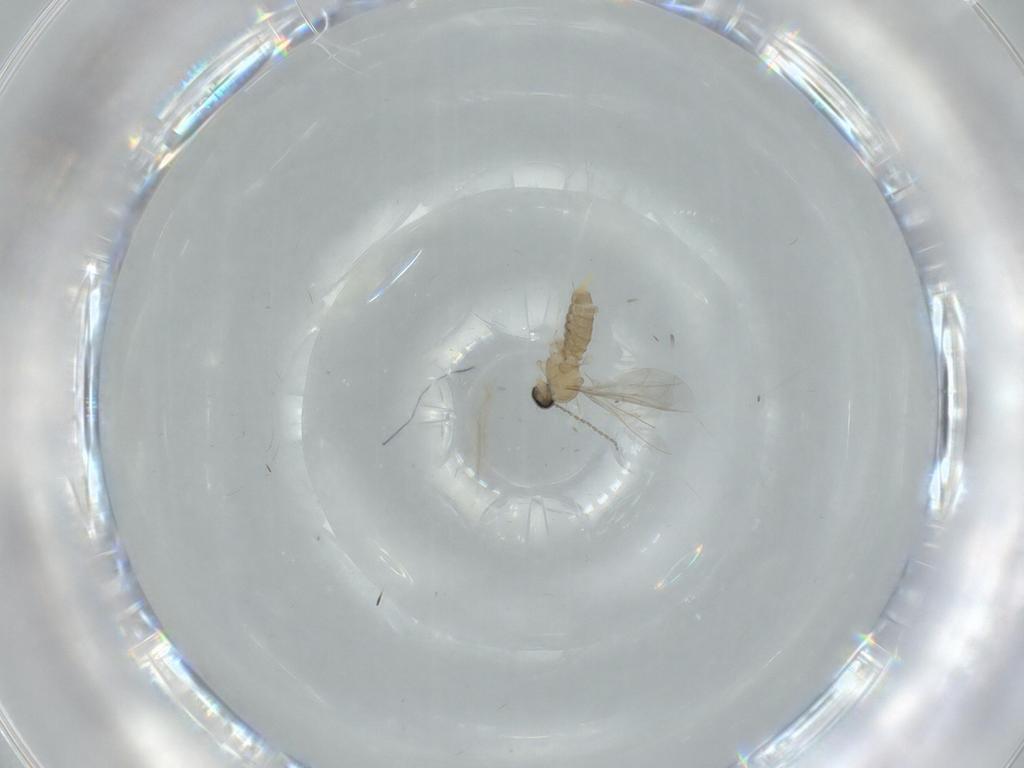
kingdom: Animalia
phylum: Arthropoda
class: Insecta
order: Diptera
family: Cecidomyiidae
